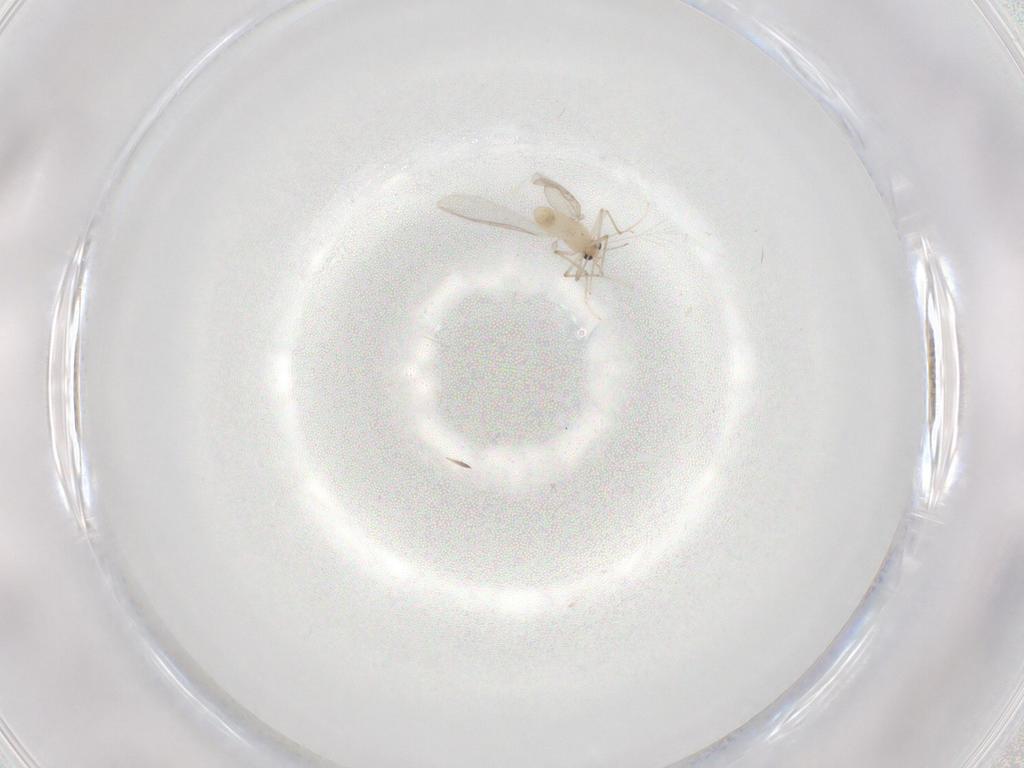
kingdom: Animalia
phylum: Arthropoda
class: Insecta
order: Diptera
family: Chironomidae
